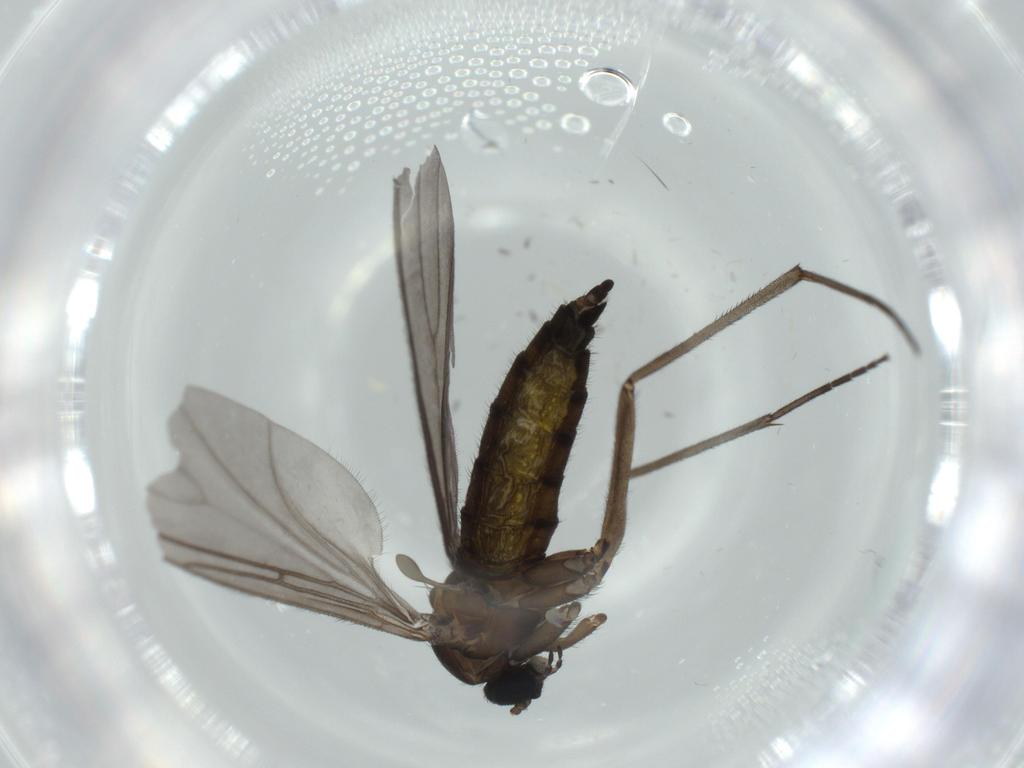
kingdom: Animalia
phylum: Arthropoda
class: Insecta
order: Diptera
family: Sciaridae
